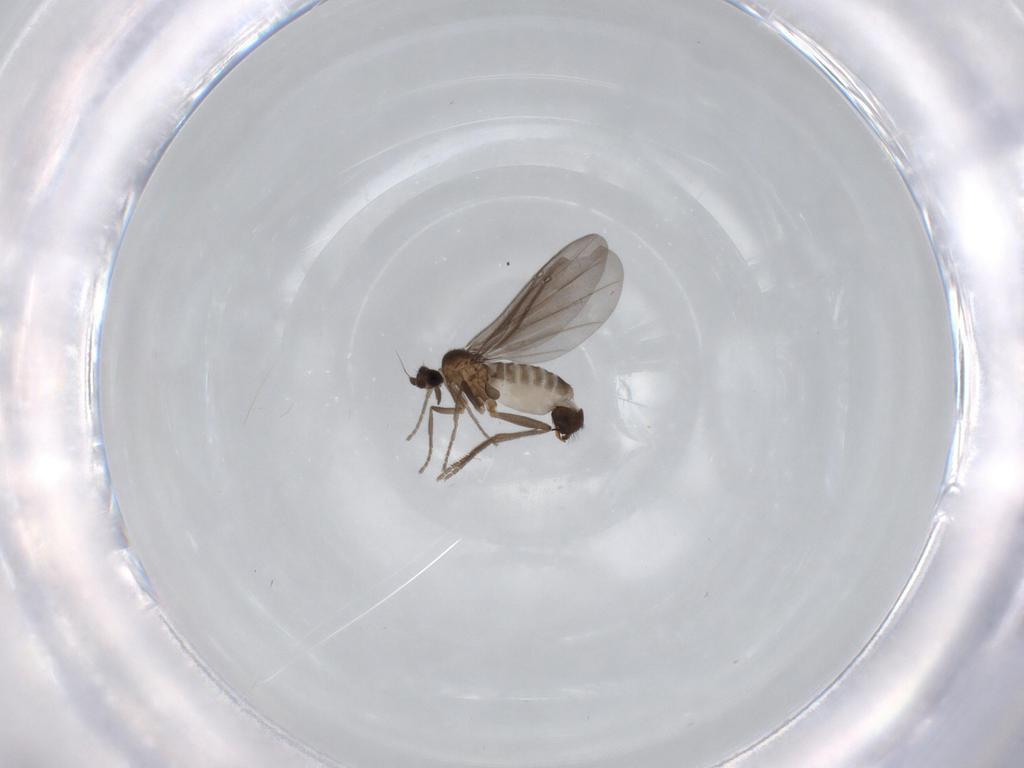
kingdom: Animalia
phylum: Arthropoda
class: Insecta
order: Diptera
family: Phoridae
